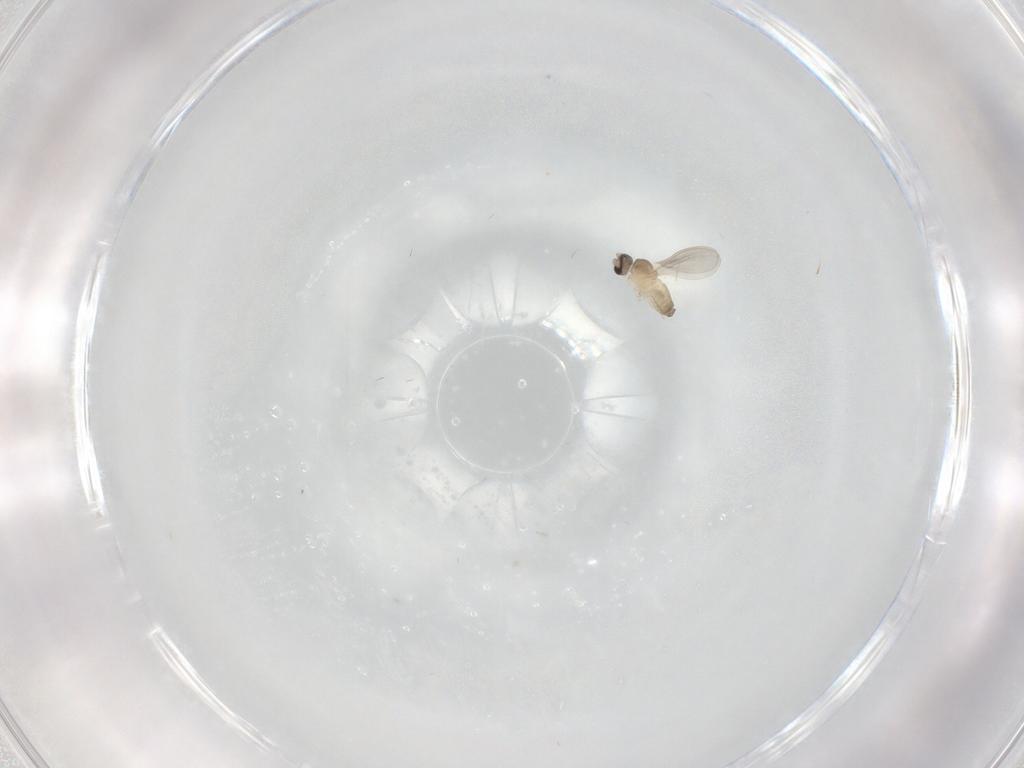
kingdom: Animalia
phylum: Arthropoda
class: Insecta
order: Diptera
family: Cecidomyiidae
